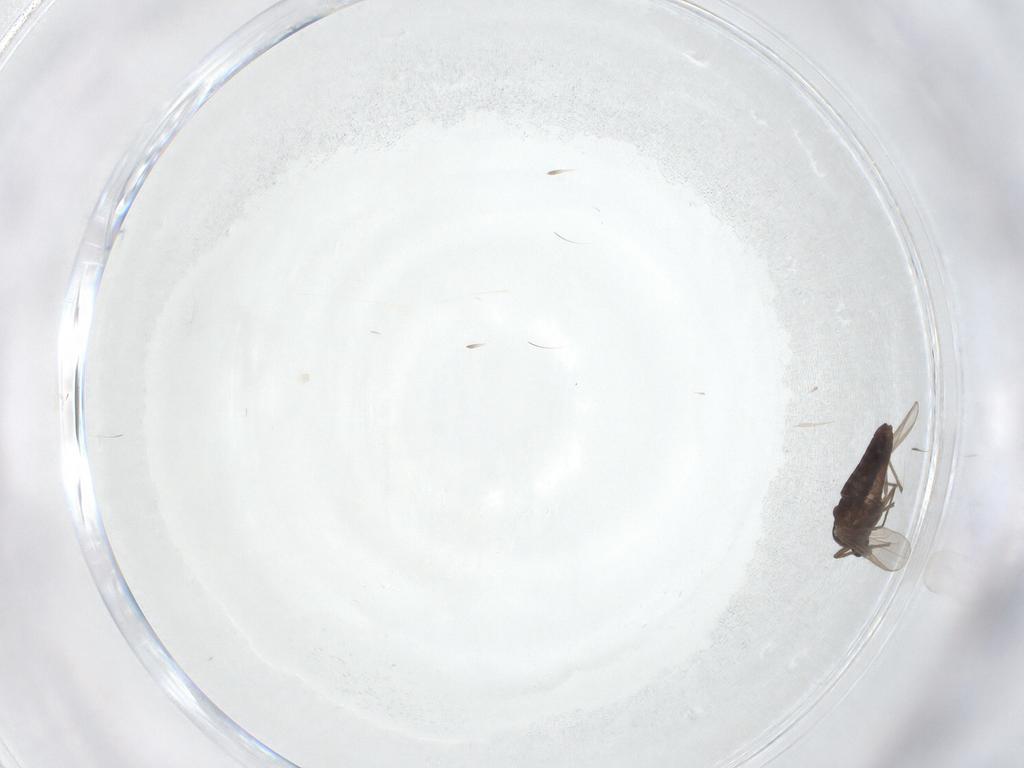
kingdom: Animalia
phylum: Arthropoda
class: Insecta
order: Diptera
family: Chironomidae
